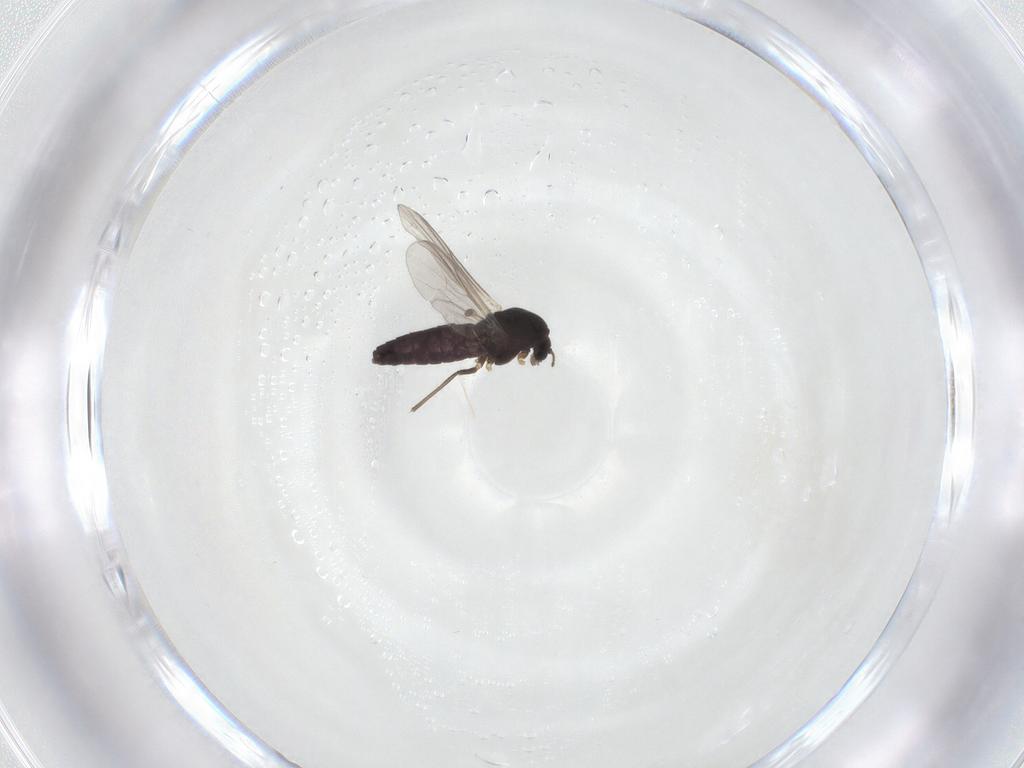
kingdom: Animalia
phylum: Arthropoda
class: Insecta
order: Diptera
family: Chironomidae
